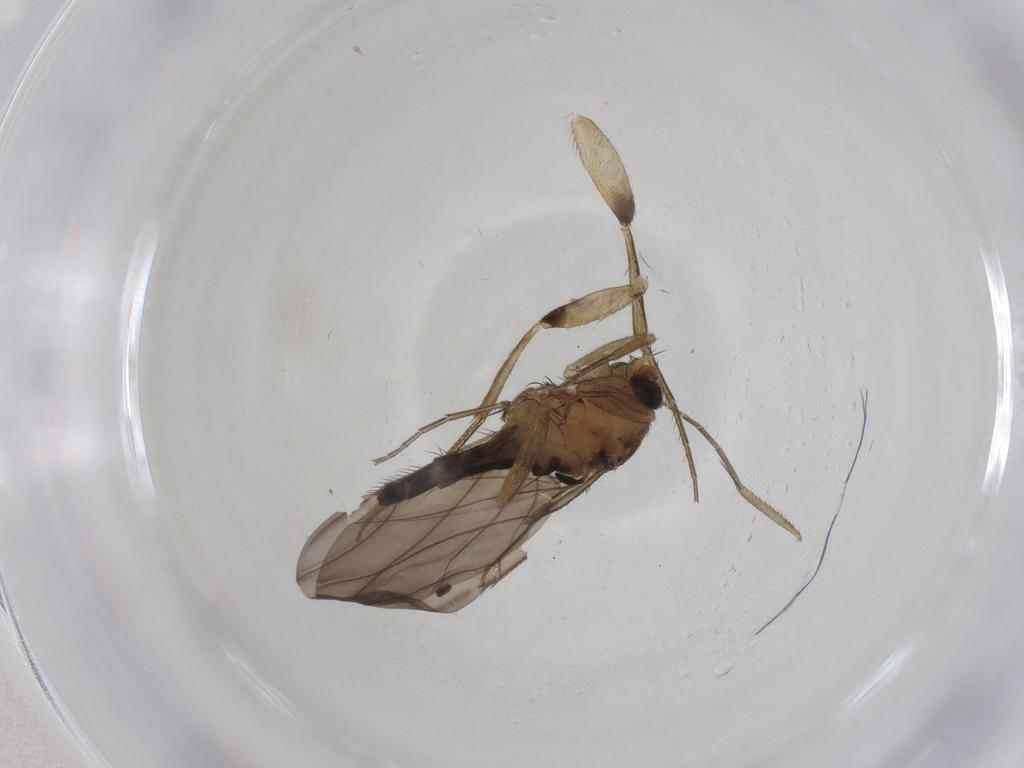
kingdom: Animalia
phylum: Arthropoda
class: Insecta
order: Diptera
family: Phoridae
